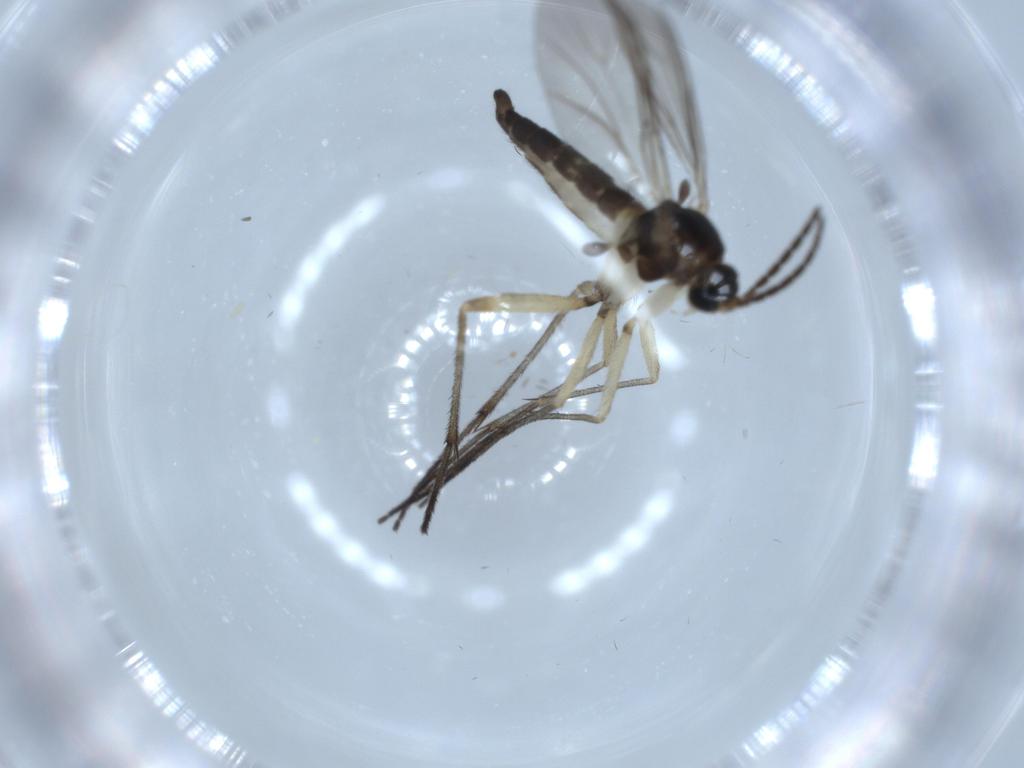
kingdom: Animalia
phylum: Arthropoda
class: Insecta
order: Diptera
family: Sciaridae
